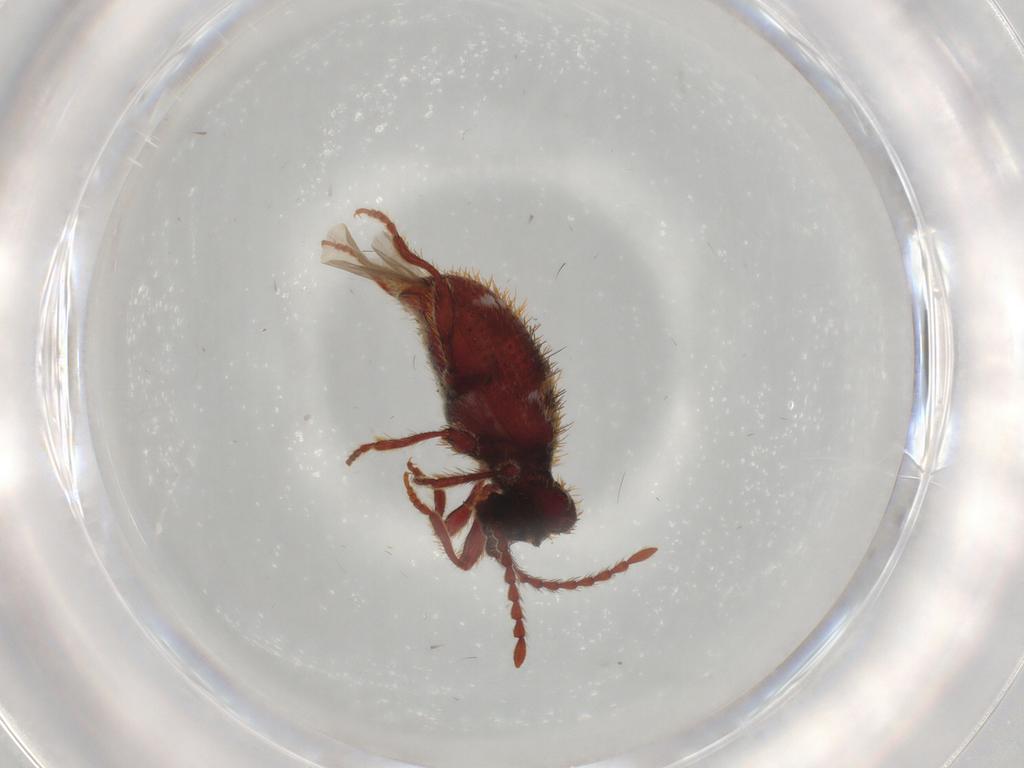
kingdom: Animalia
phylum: Arthropoda
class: Insecta
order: Coleoptera
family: Ptinidae
